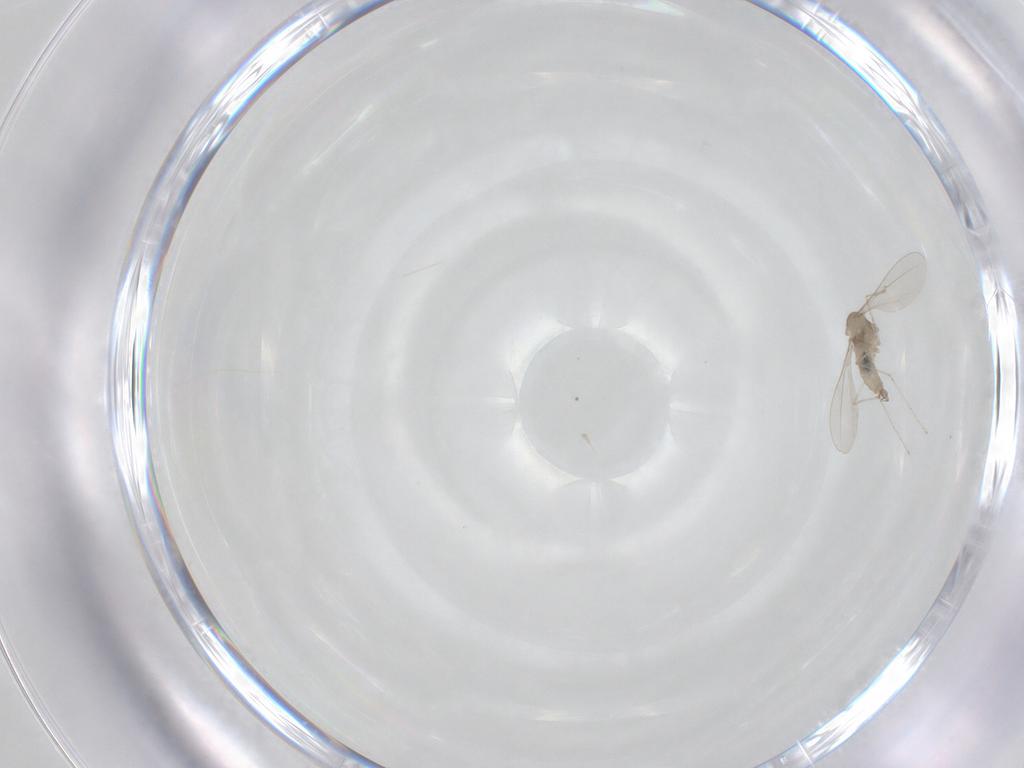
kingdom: Animalia
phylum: Arthropoda
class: Insecta
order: Diptera
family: Cecidomyiidae
